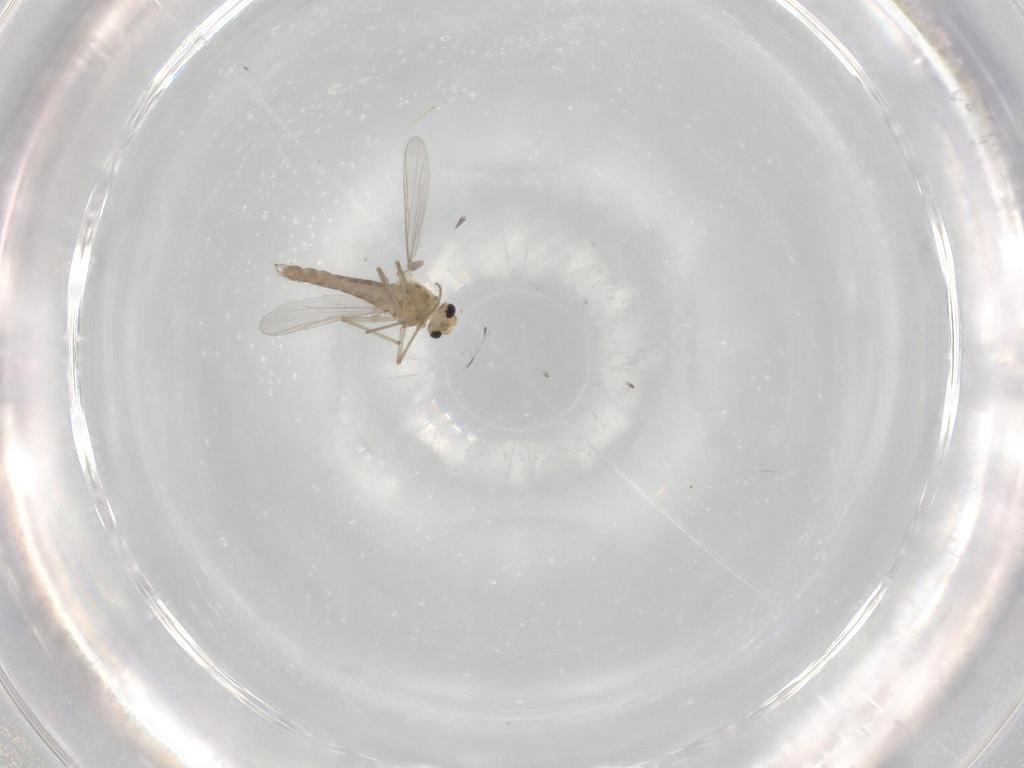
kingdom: Animalia
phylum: Arthropoda
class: Insecta
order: Diptera
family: Chironomidae
